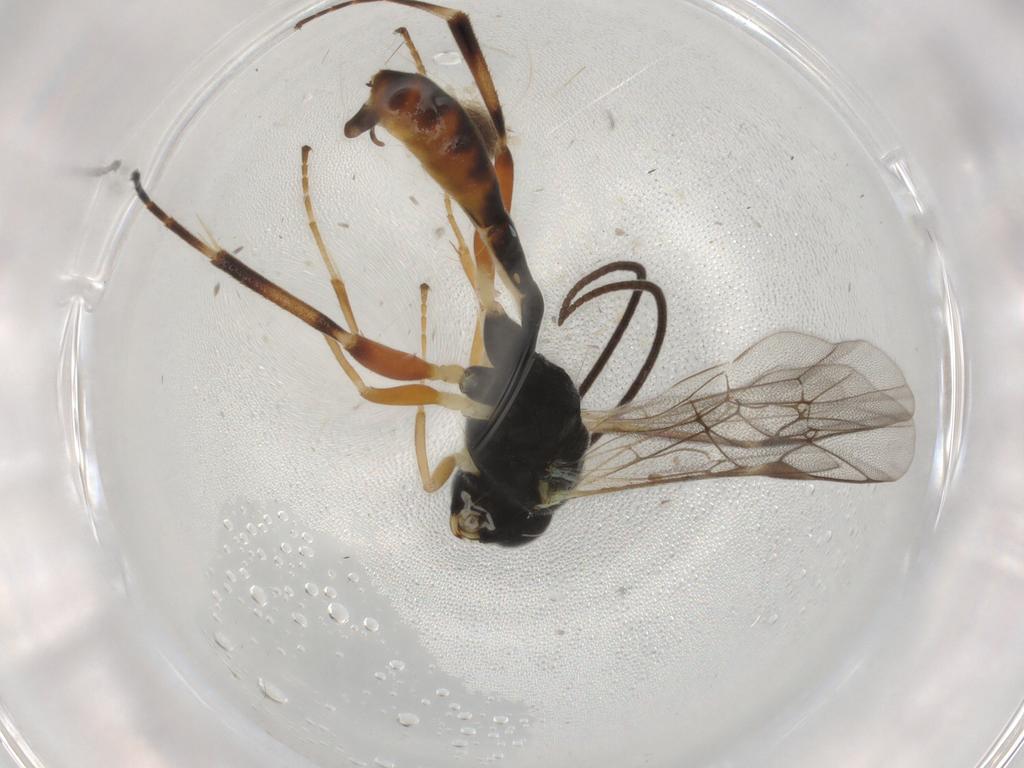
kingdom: Animalia
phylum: Arthropoda
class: Insecta
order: Hymenoptera
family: Ichneumonidae
